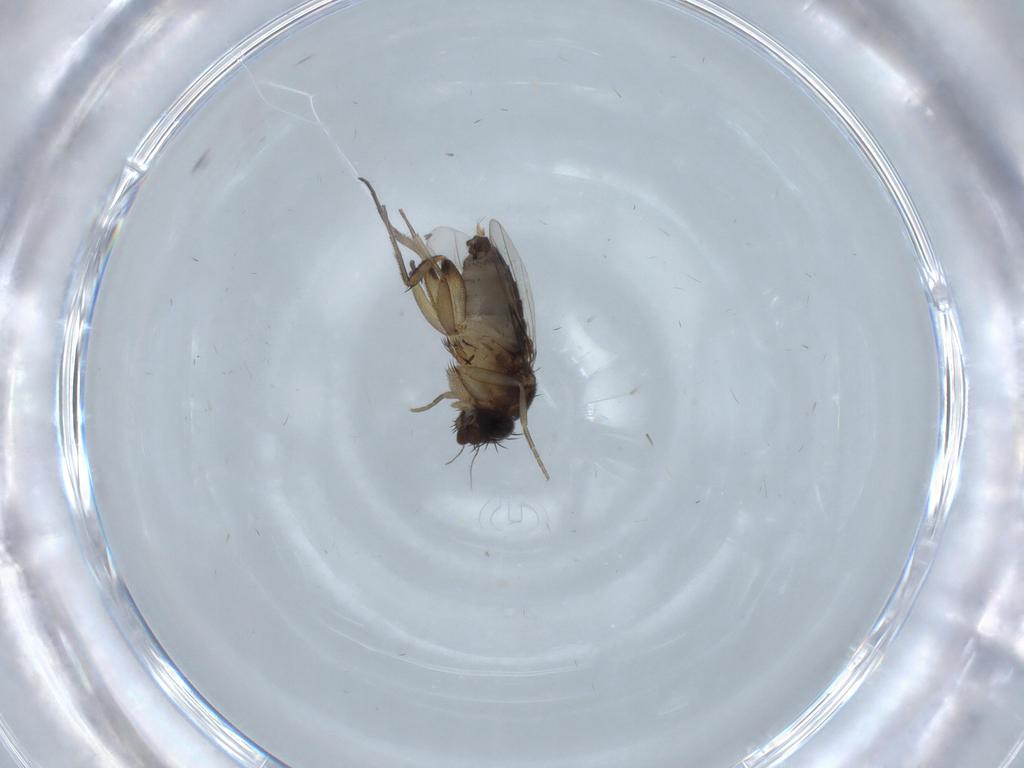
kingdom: Animalia
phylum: Arthropoda
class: Insecta
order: Diptera
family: Phoridae
